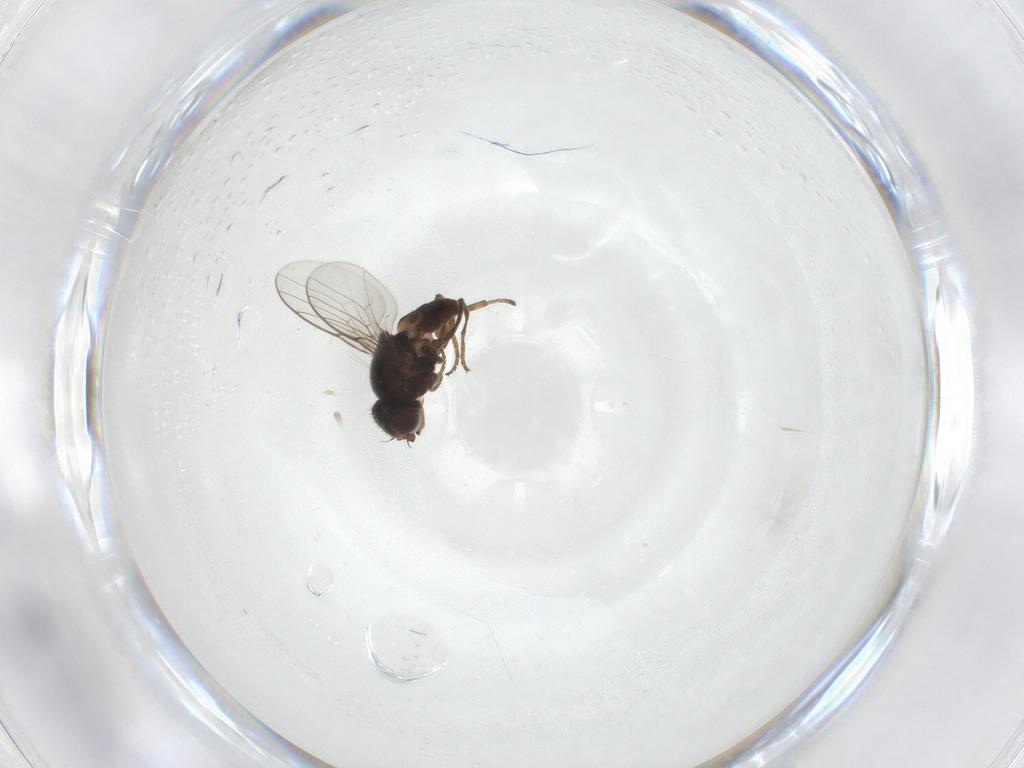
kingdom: Animalia
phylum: Arthropoda
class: Insecta
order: Diptera
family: Chloropidae
